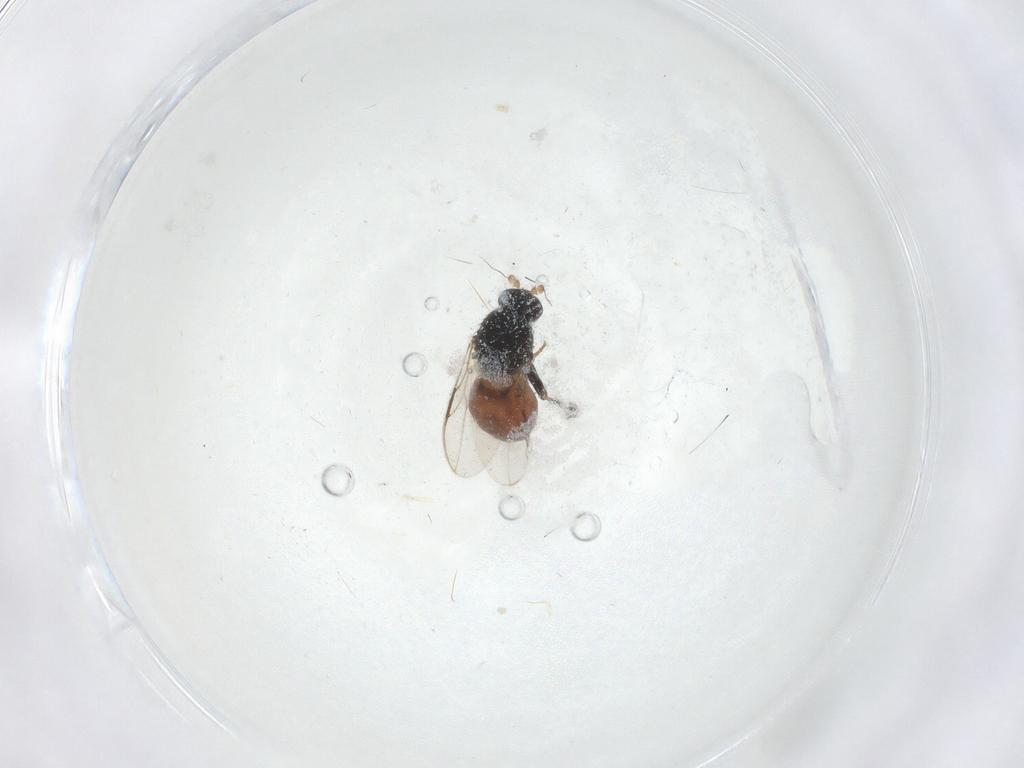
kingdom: Animalia
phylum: Arthropoda
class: Insecta
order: Diptera
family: Sphaeroceridae
